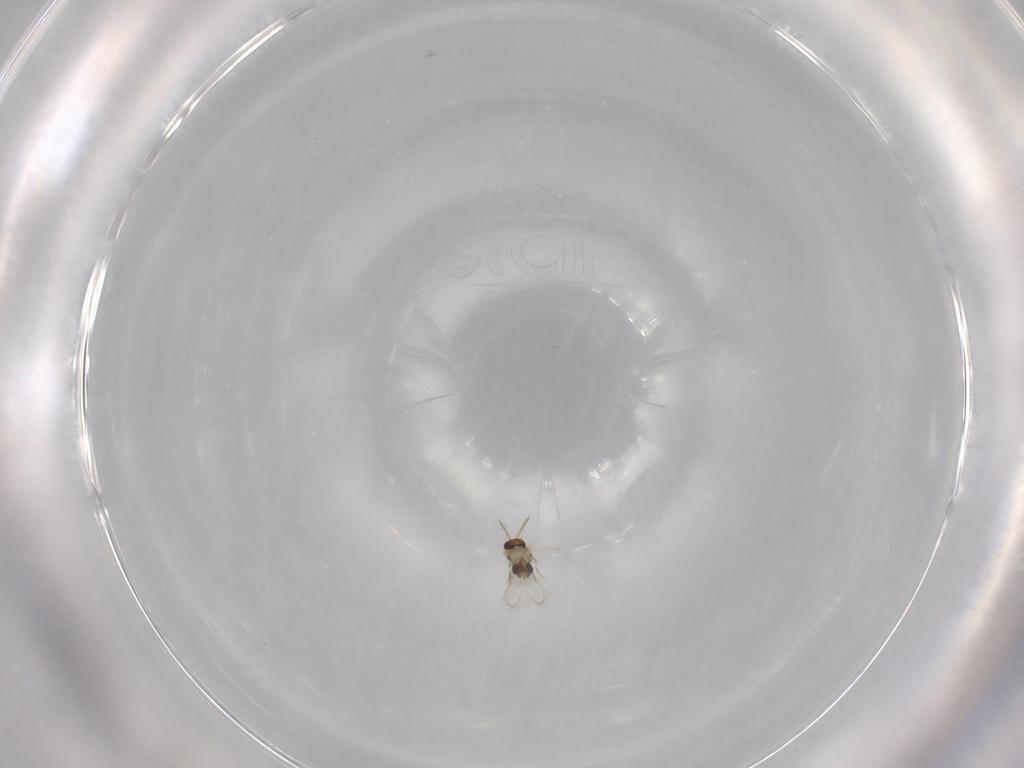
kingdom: Animalia
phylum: Arthropoda
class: Insecta
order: Hymenoptera
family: Aphelinidae
